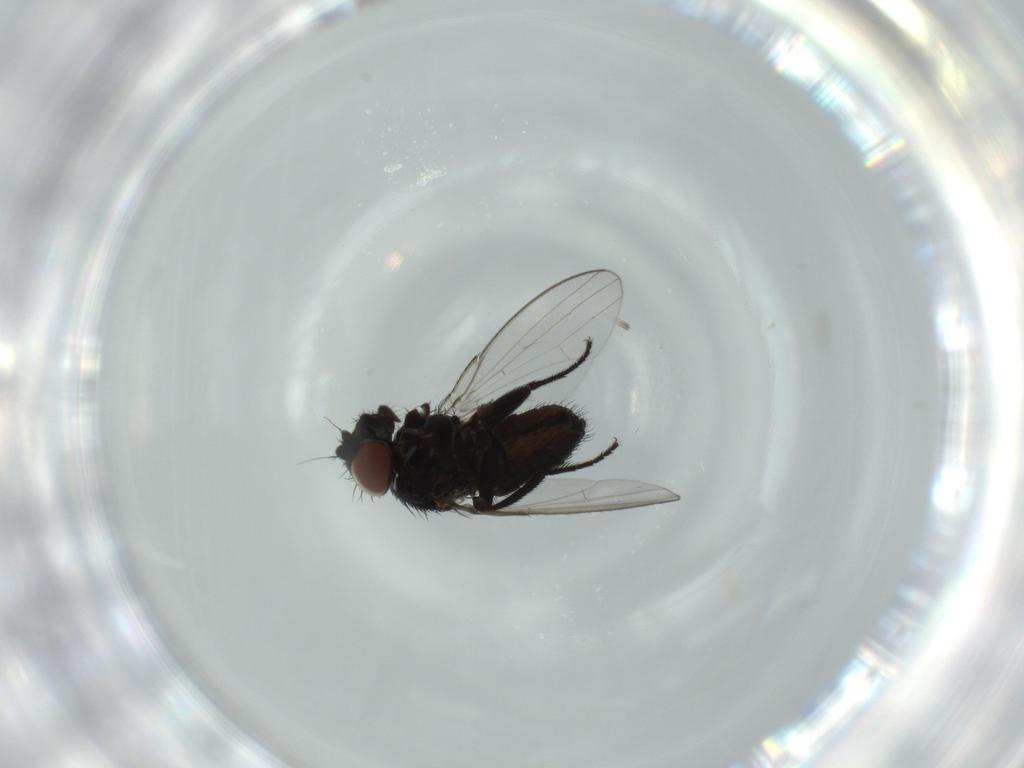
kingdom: Animalia
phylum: Arthropoda
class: Insecta
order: Diptera
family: Milichiidae
